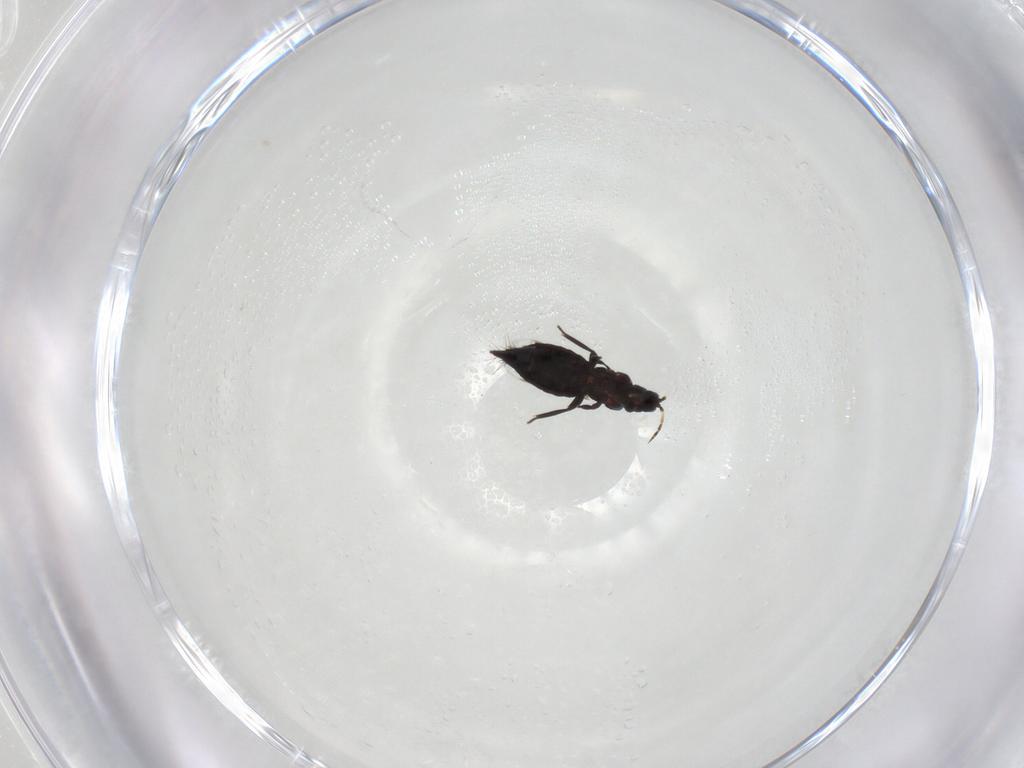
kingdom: Animalia
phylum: Arthropoda
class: Insecta
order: Thysanoptera
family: Aeolothripidae
